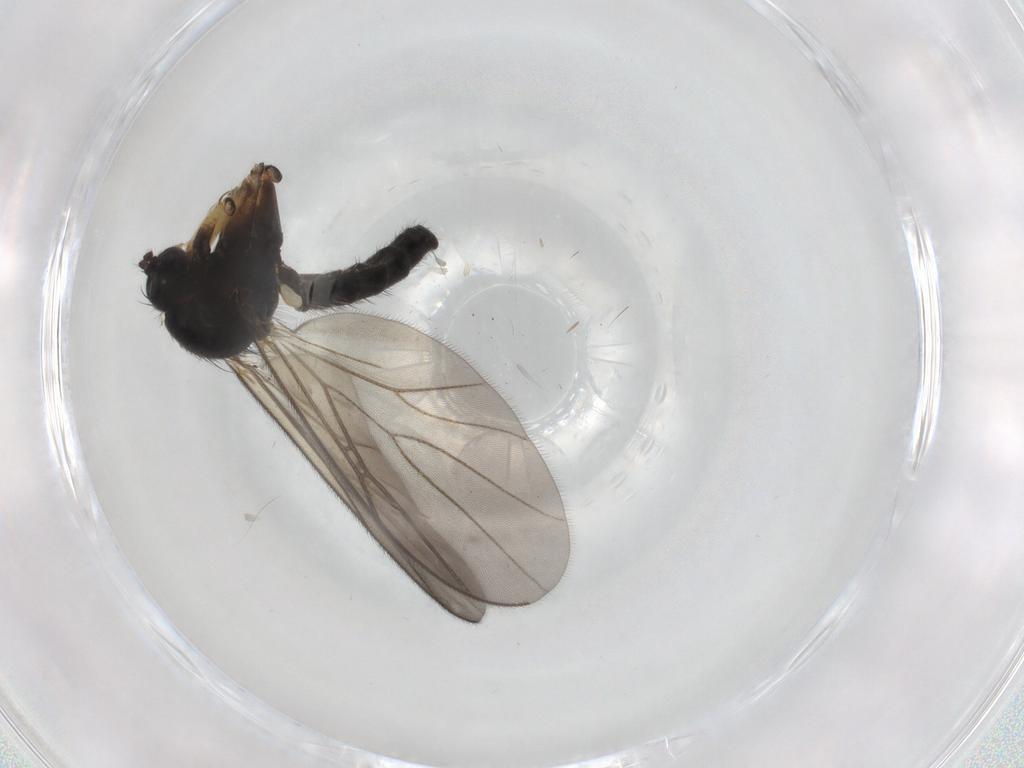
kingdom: Animalia
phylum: Arthropoda
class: Insecta
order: Diptera
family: Mycetophilidae
